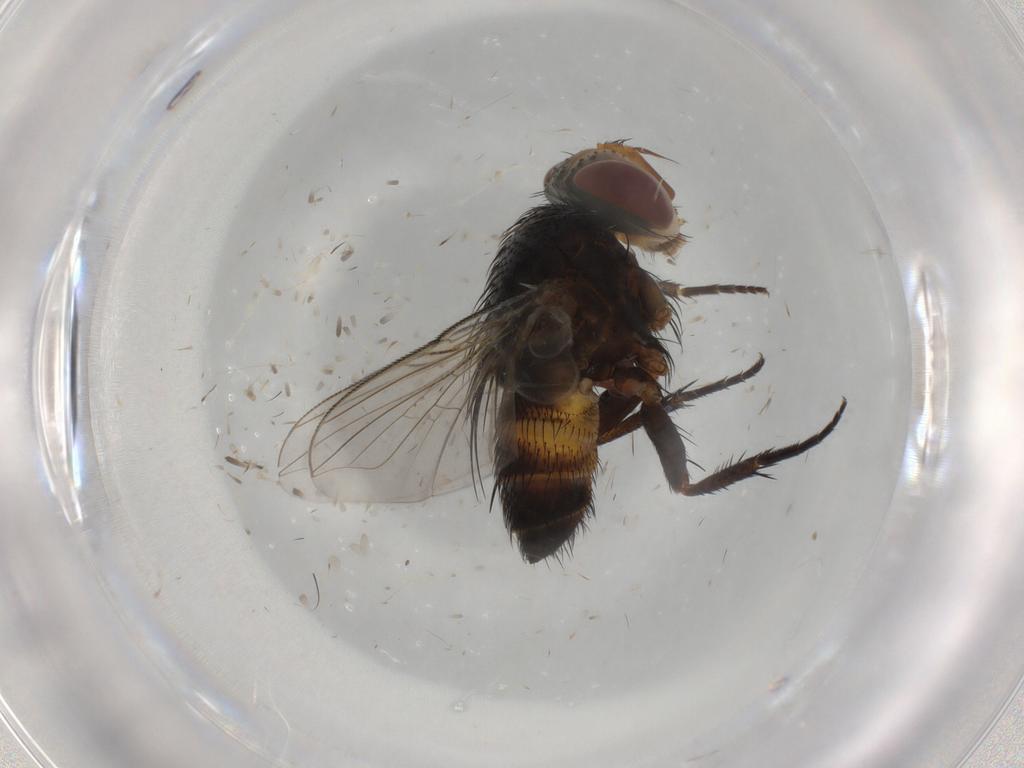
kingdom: Animalia
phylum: Arthropoda
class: Insecta
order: Diptera
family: Calliphoridae
